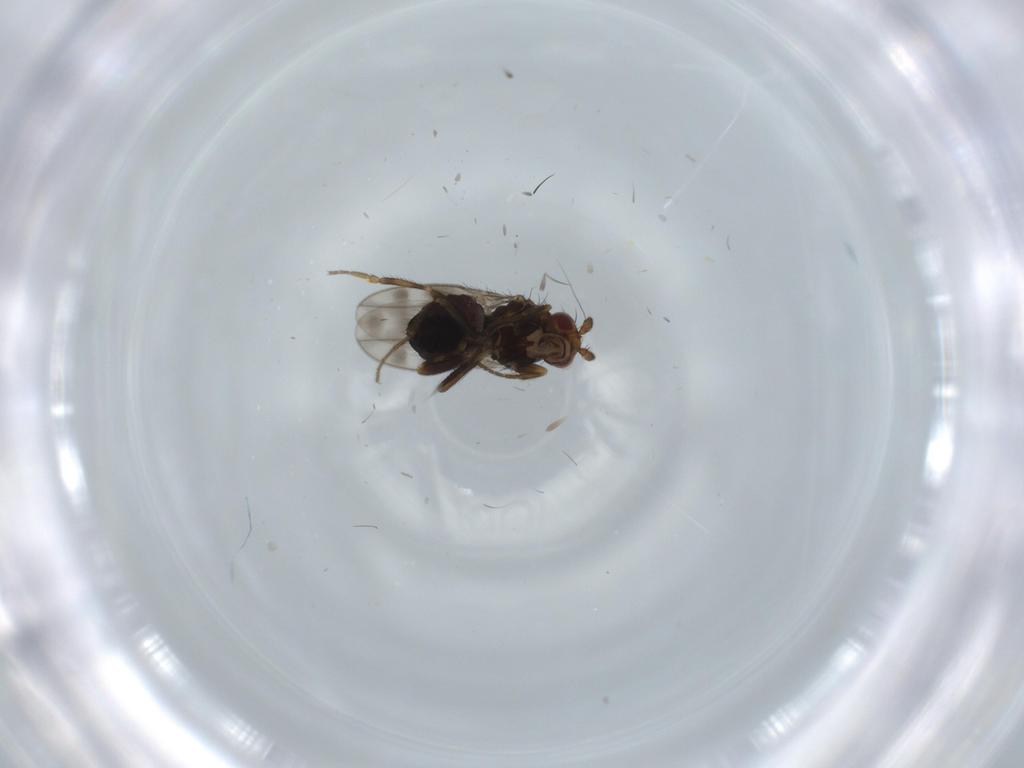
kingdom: Animalia
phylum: Arthropoda
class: Insecta
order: Diptera
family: Sphaeroceridae
